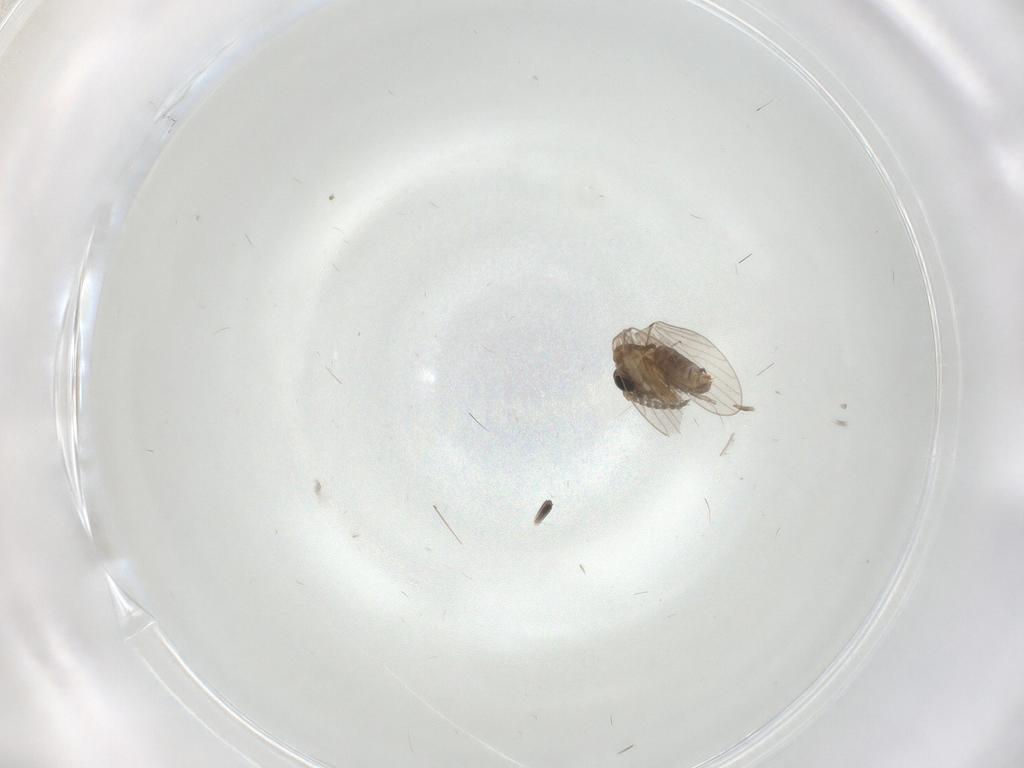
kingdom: Animalia
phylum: Arthropoda
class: Insecta
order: Diptera
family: Psychodidae
